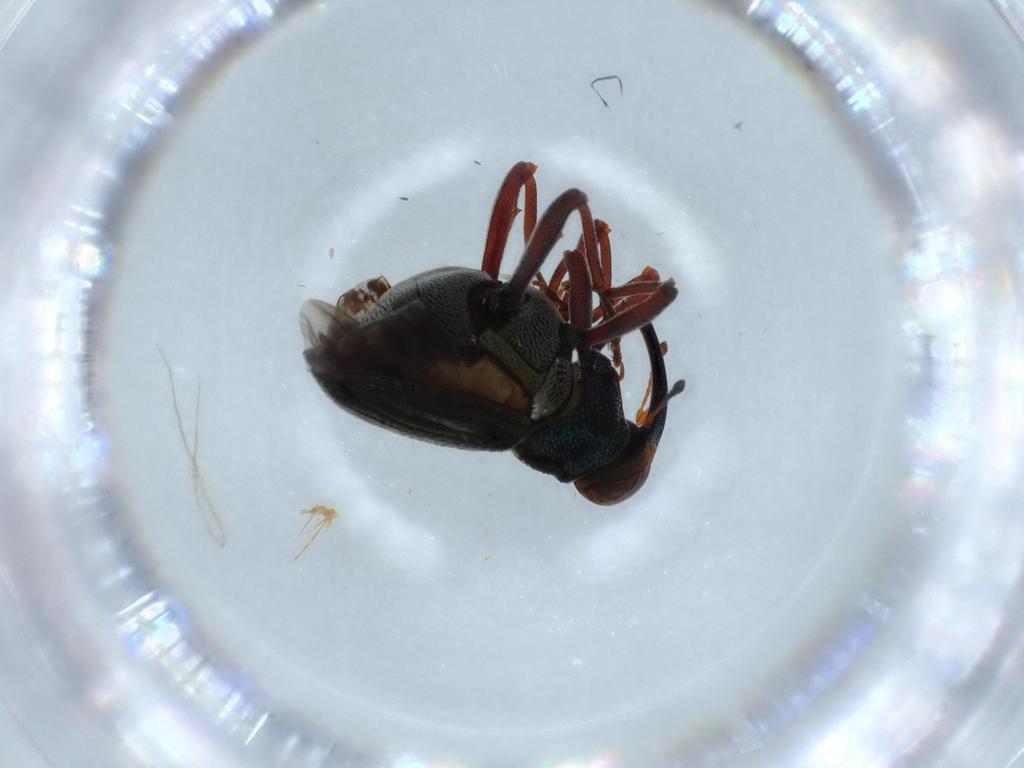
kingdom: Animalia
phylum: Arthropoda
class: Insecta
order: Coleoptera
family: Curculionidae
